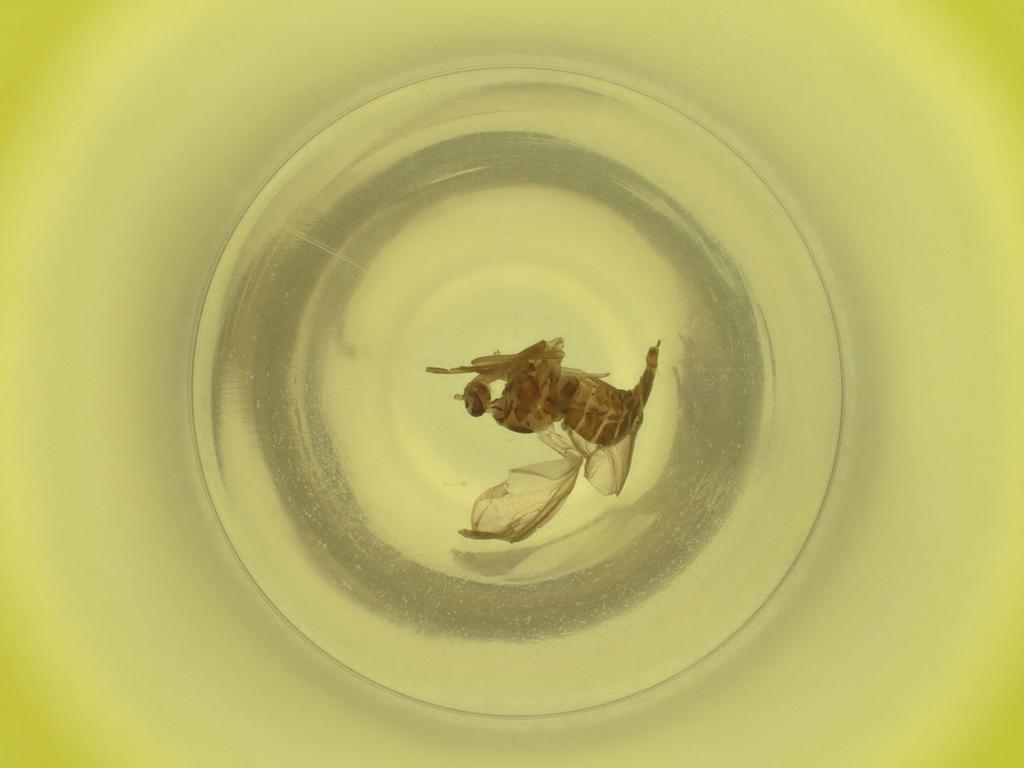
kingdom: Animalia
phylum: Arthropoda
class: Insecta
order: Diptera
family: Cecidomyiidae
